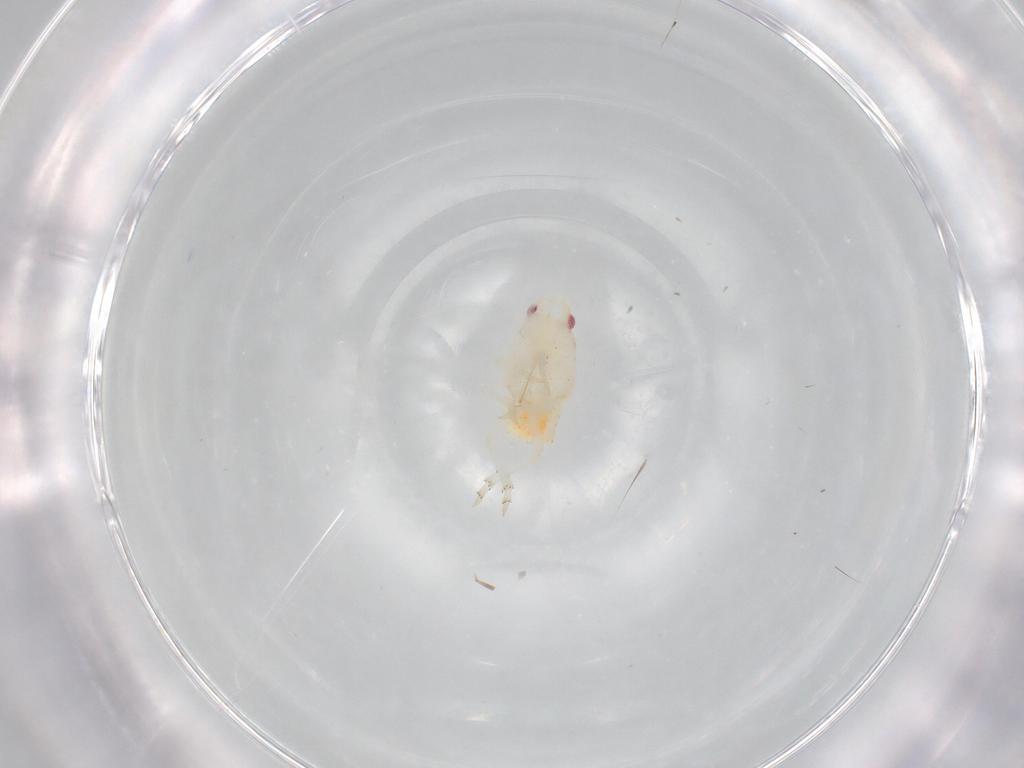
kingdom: Animalia
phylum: Arthropoda
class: Insecta
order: Hemiptera
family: Flatidae
